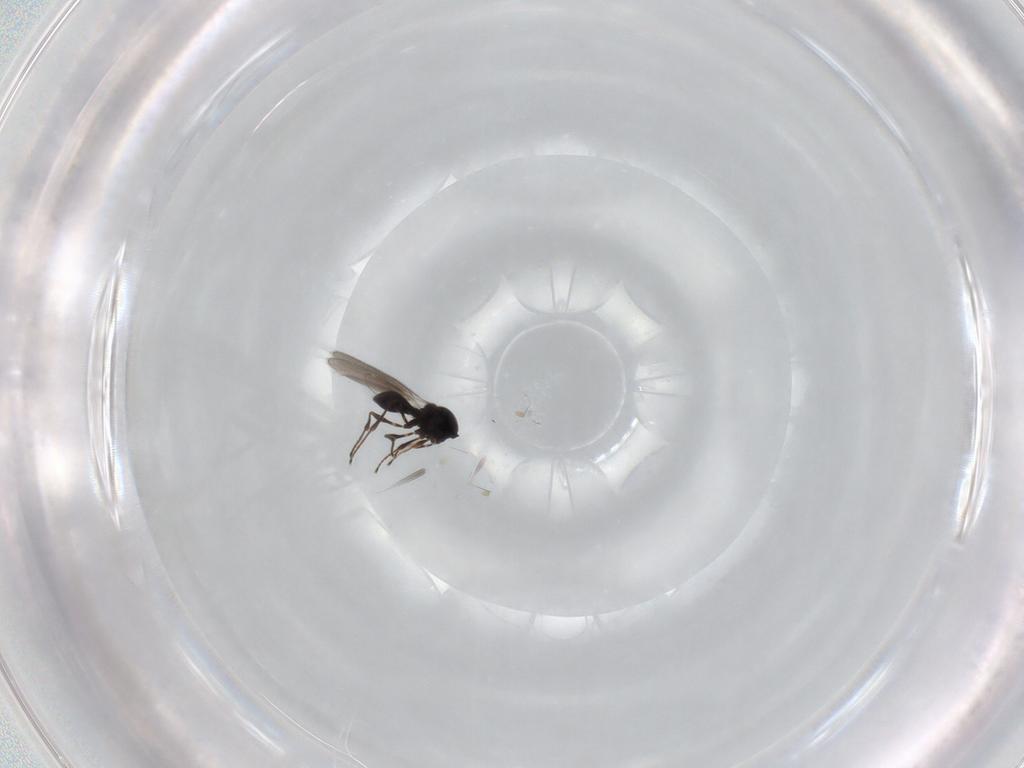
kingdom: Animalia
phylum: Arthropoda
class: Insecta
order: Hymenoptera
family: Platygastridae
